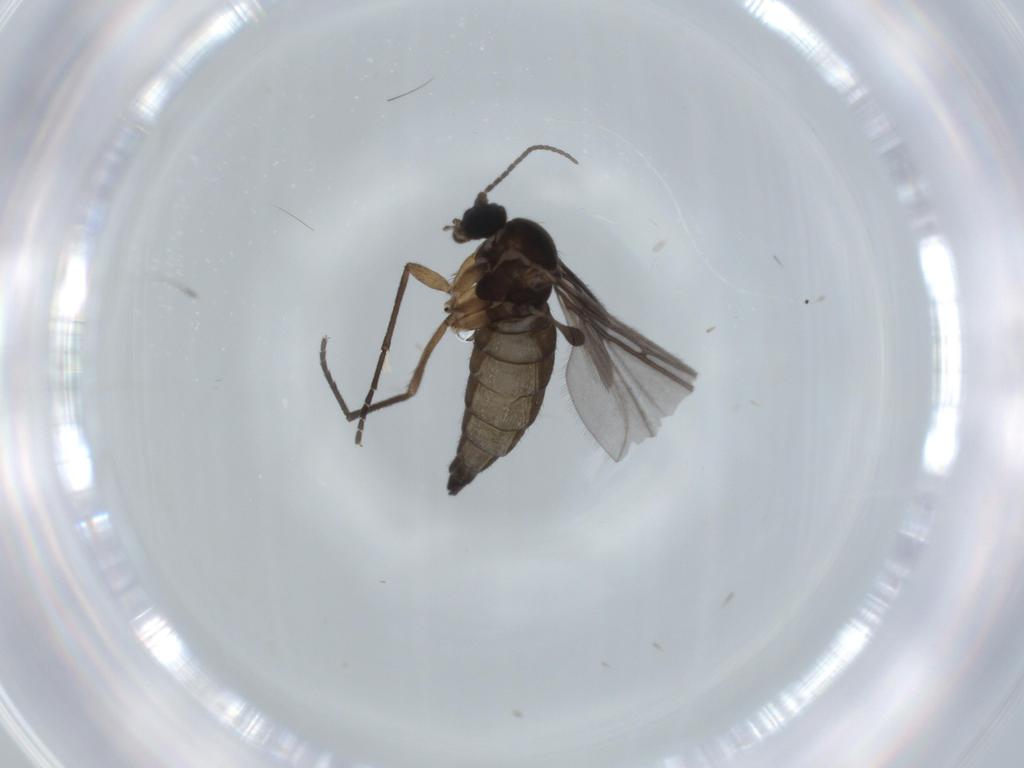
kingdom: Animalia
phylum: Arthropoda
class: Insecta
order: Diptera
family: Sciaridae
